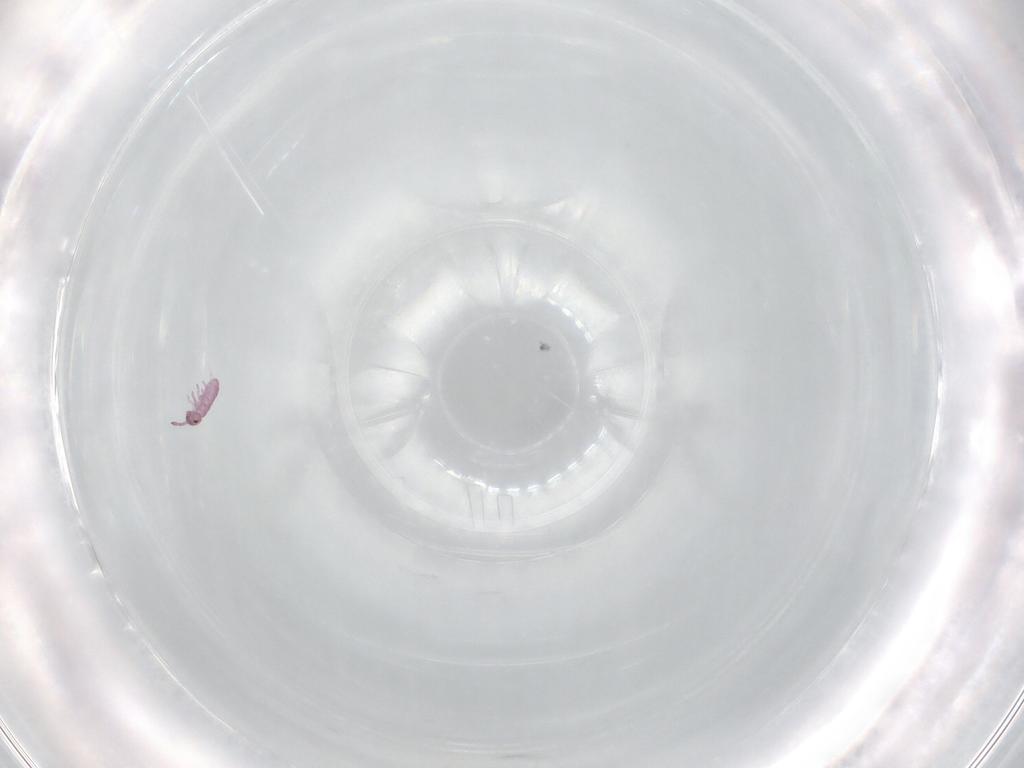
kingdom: Animalia
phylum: Arthropoda
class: Collembola
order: Entomobryomorpha
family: Isotomidae
